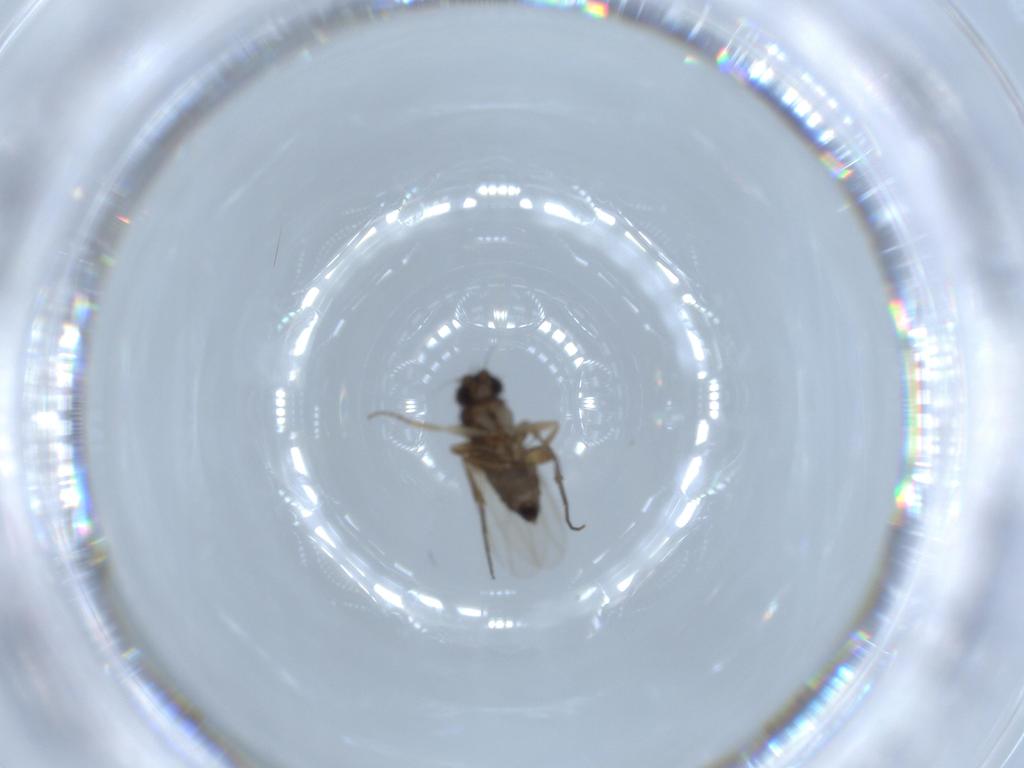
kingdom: Animalia
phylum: Arthropoda
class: Insecta
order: Diptera
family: Phoridae
